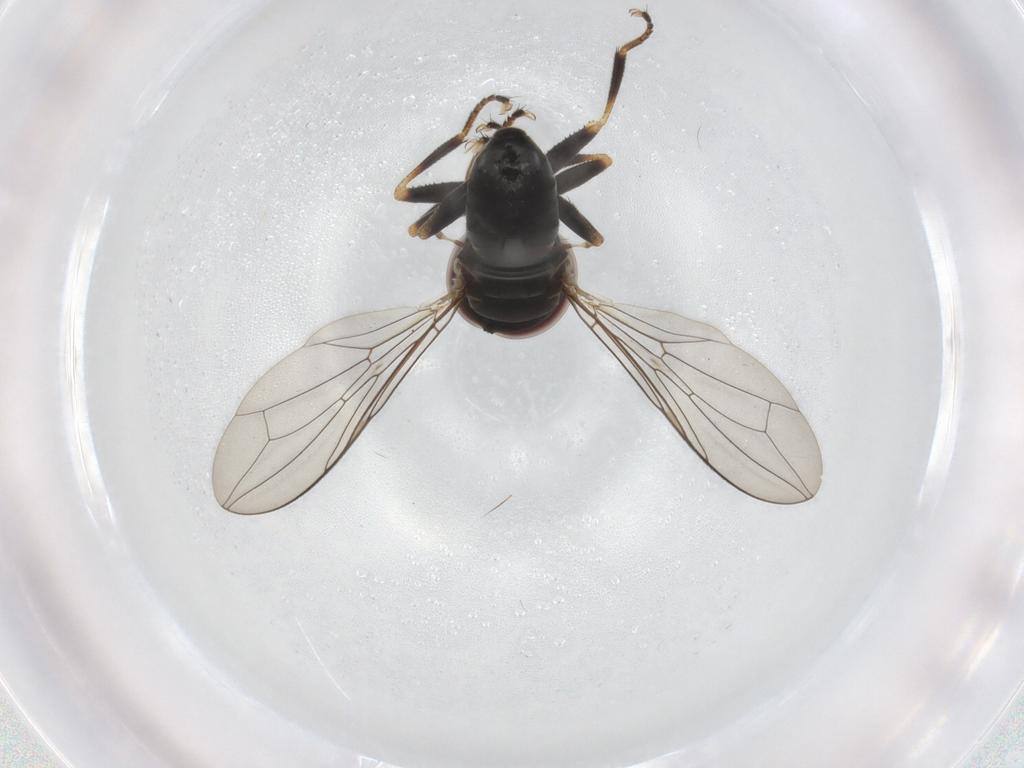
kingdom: Animalia
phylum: Arthropoda
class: Insecta
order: Diptera
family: Pipunculidae
